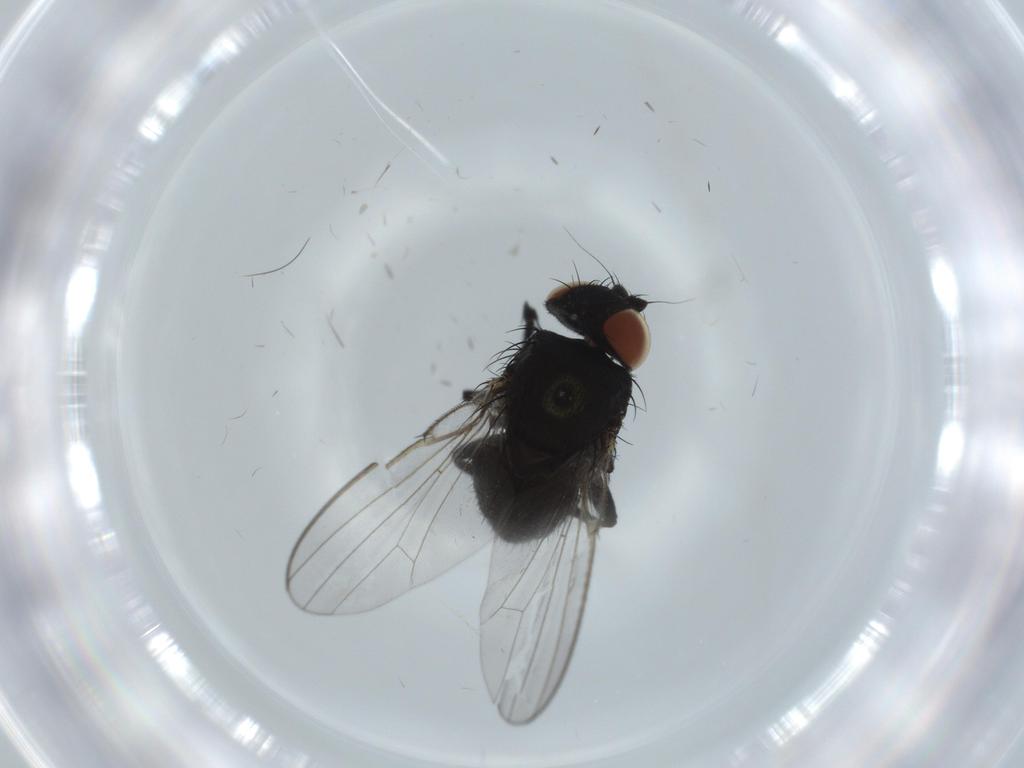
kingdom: Animalia
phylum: Arthropoda
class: Insecta
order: Diptera
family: Milichiidae
